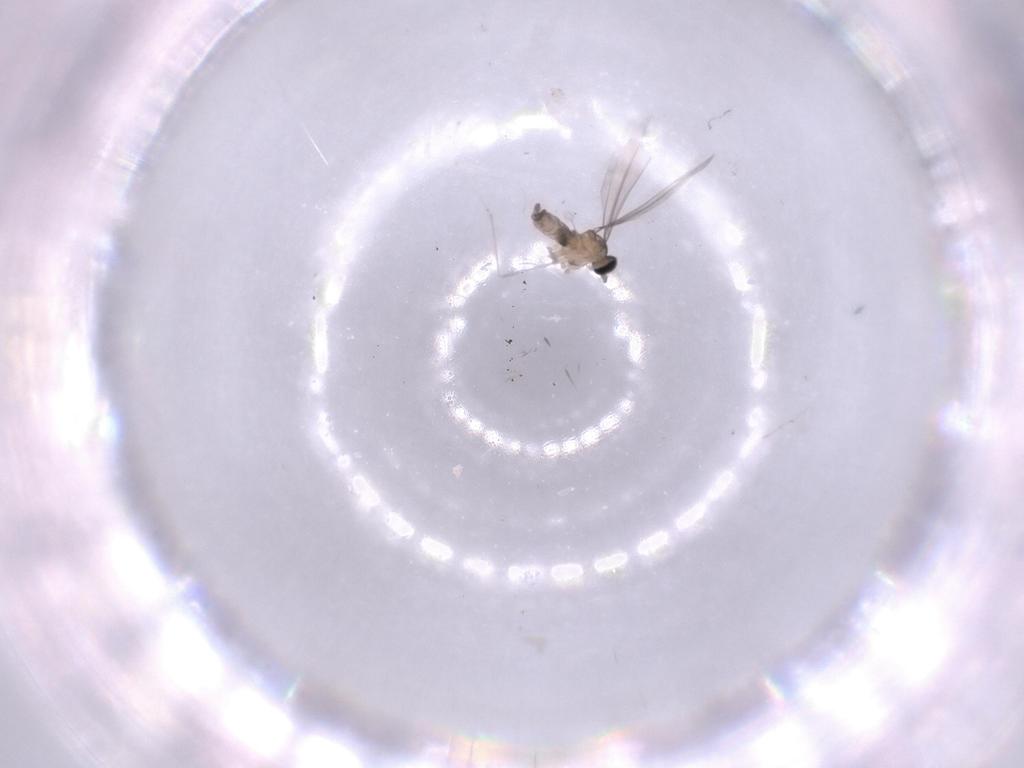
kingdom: Animalia
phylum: Arthropoda
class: Insecta
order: Diptera
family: Cecidomyiidae
